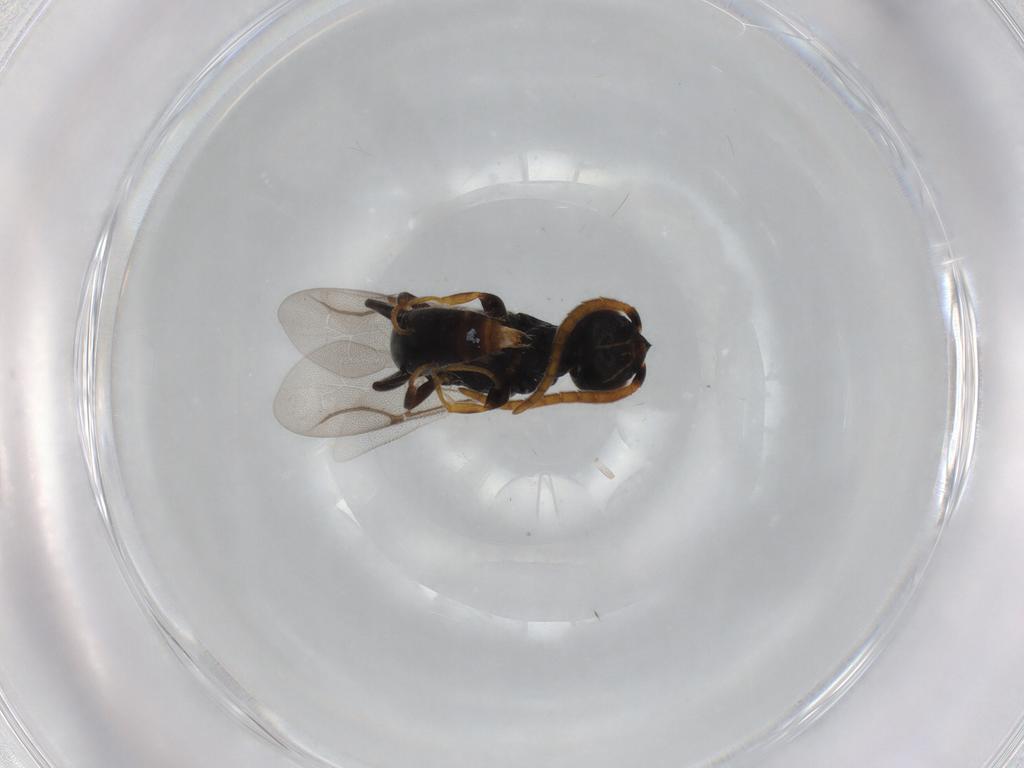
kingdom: Animalia
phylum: Arthropoda
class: Insecta
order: Hymenoptera
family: Bethylidae
